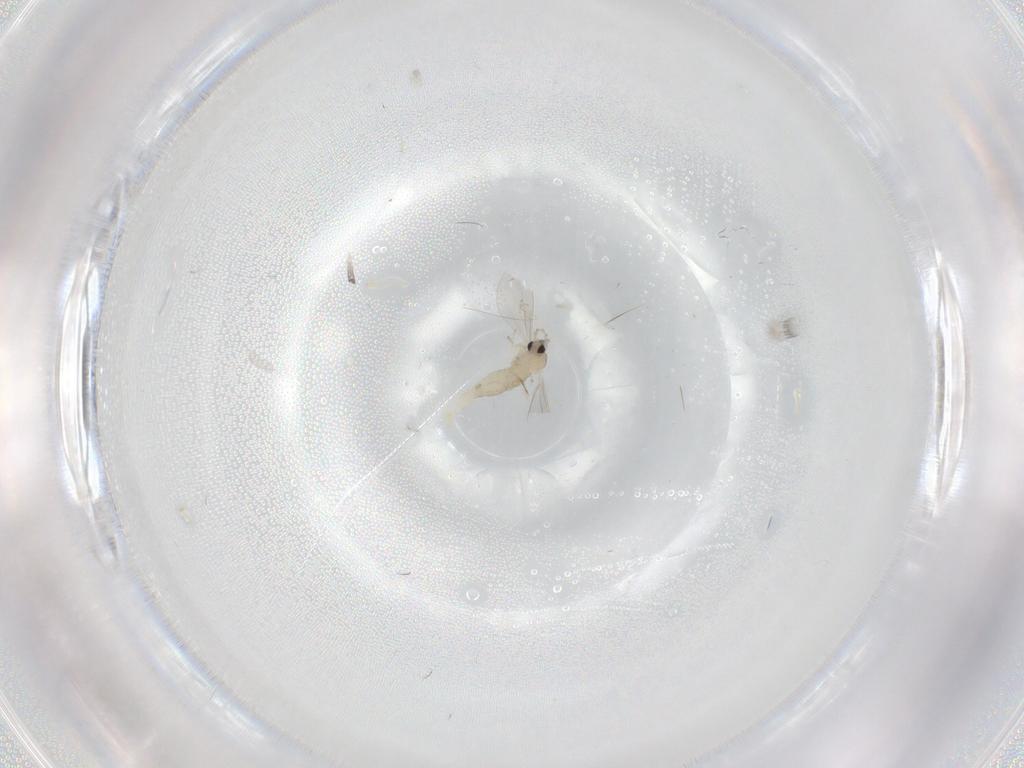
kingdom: Animalia
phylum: Arthropoda
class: Insecta
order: Diptera
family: Cecidomyiidae
